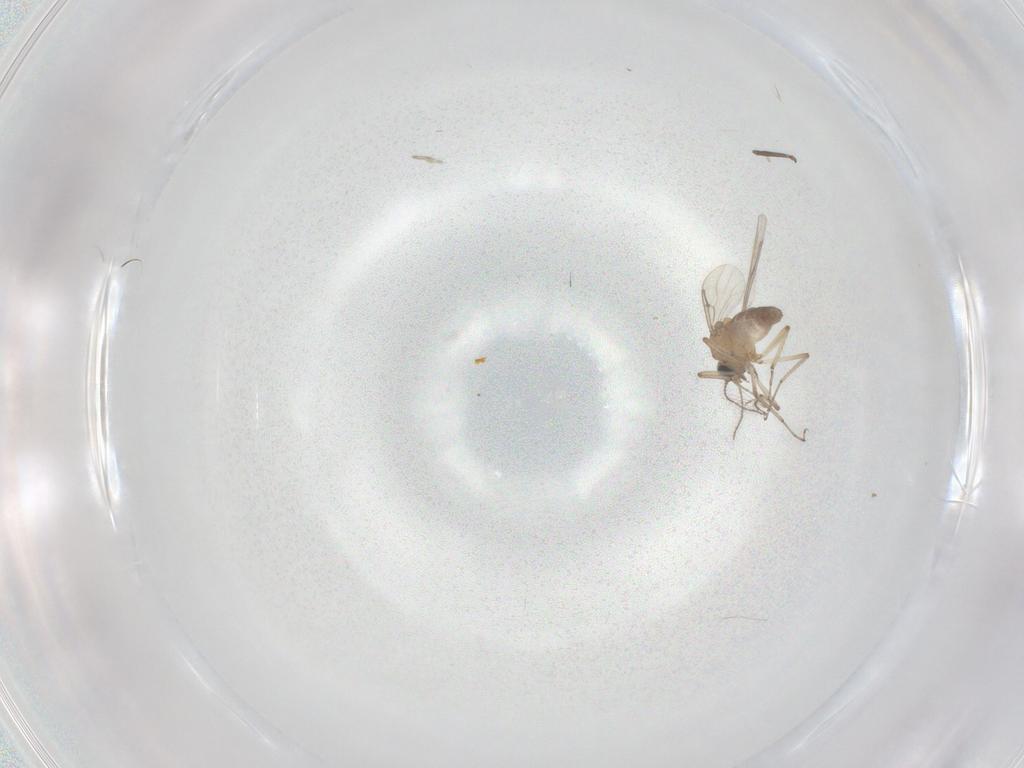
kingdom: Animalia
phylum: Arthropoda
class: Insecta
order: Diptera
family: Ceratopogonidae
